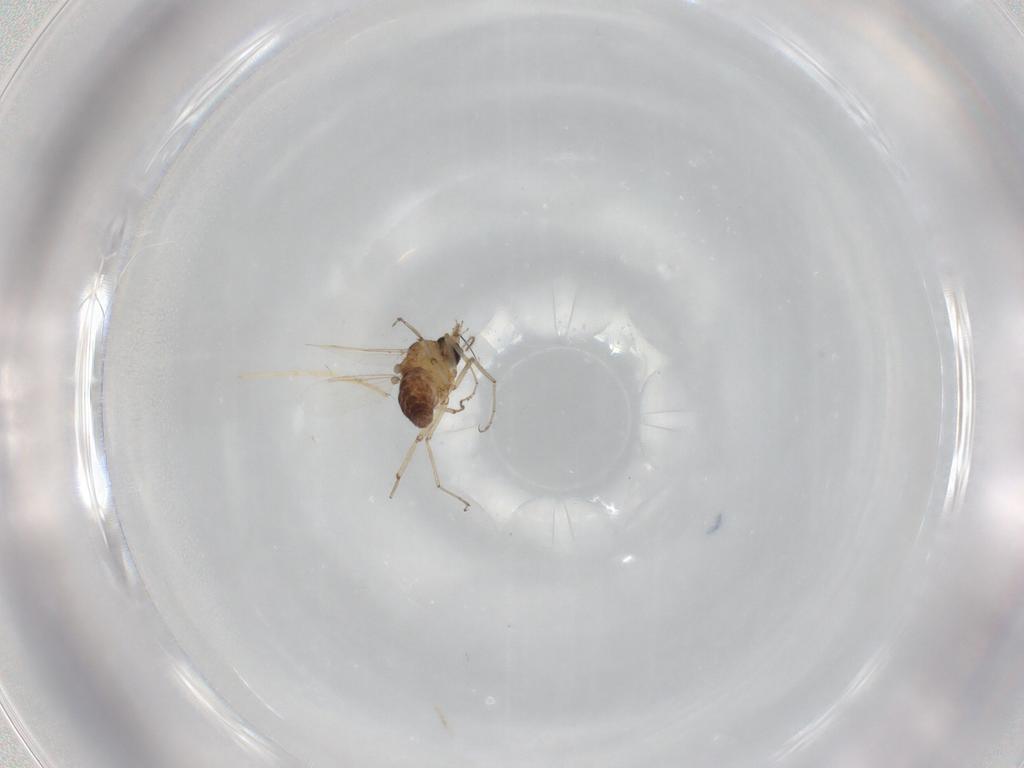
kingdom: Animalia
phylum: Arthropoda
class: Insecta
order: Diptera
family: Ceratopogonidae
